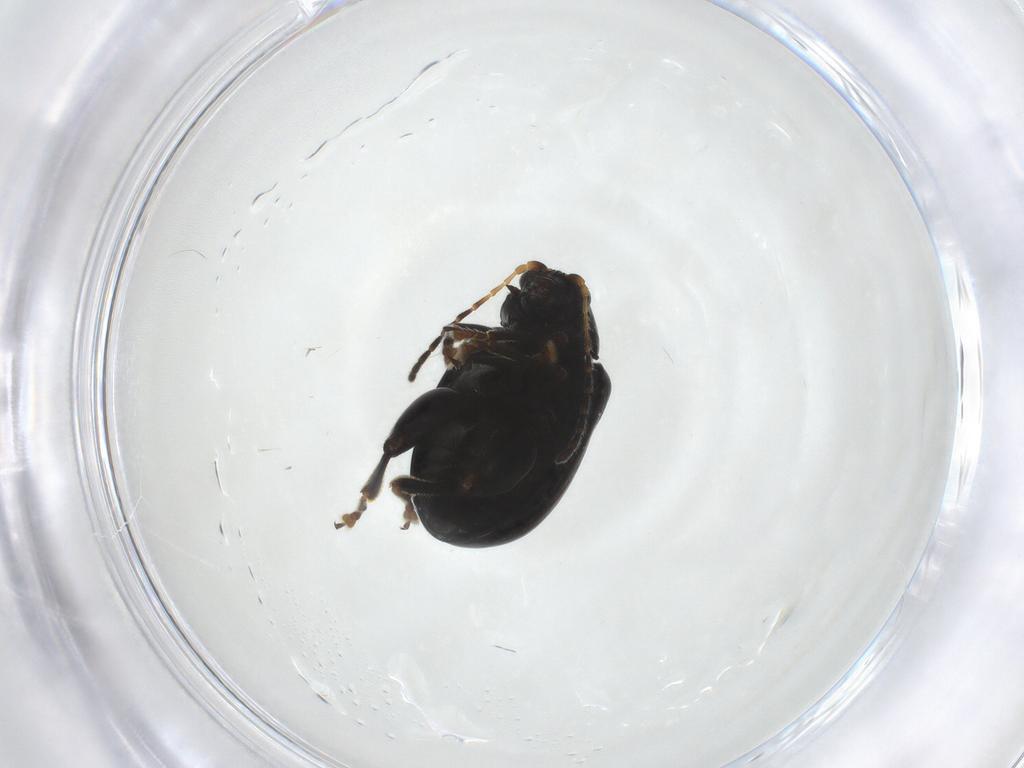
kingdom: Animalia
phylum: Arthropoda
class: Insecta
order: Coleoptera
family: Chrysomelidae
